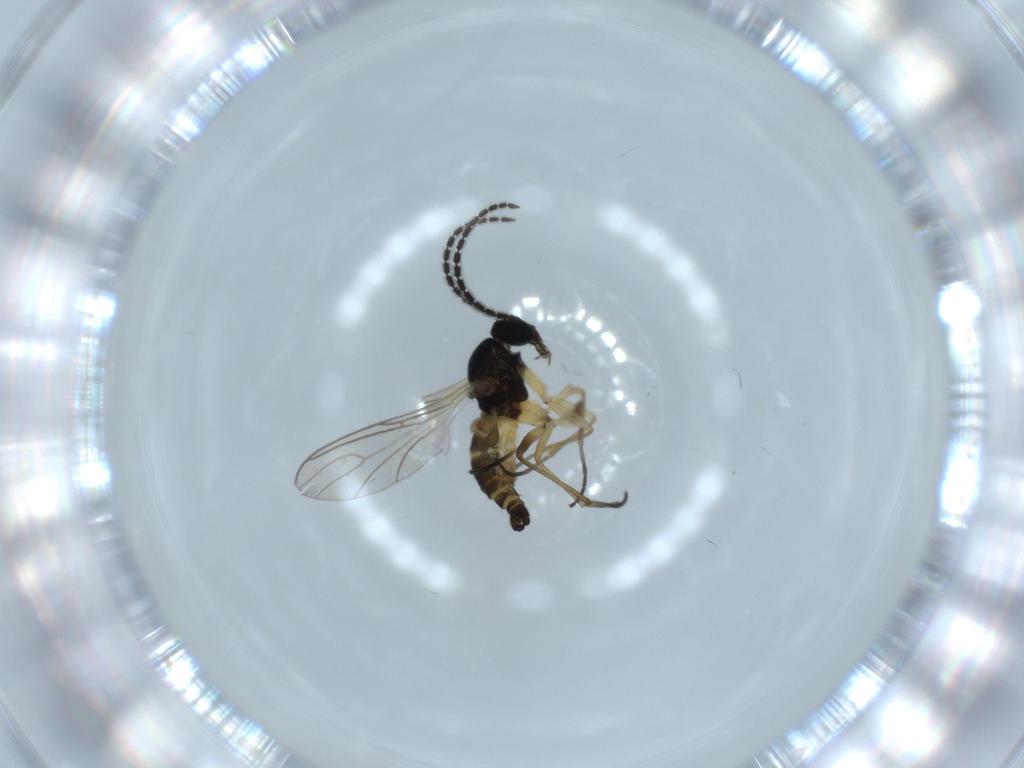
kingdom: Animalia
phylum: Arthropoda
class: Insecta
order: Diptera
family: Sciaridae
